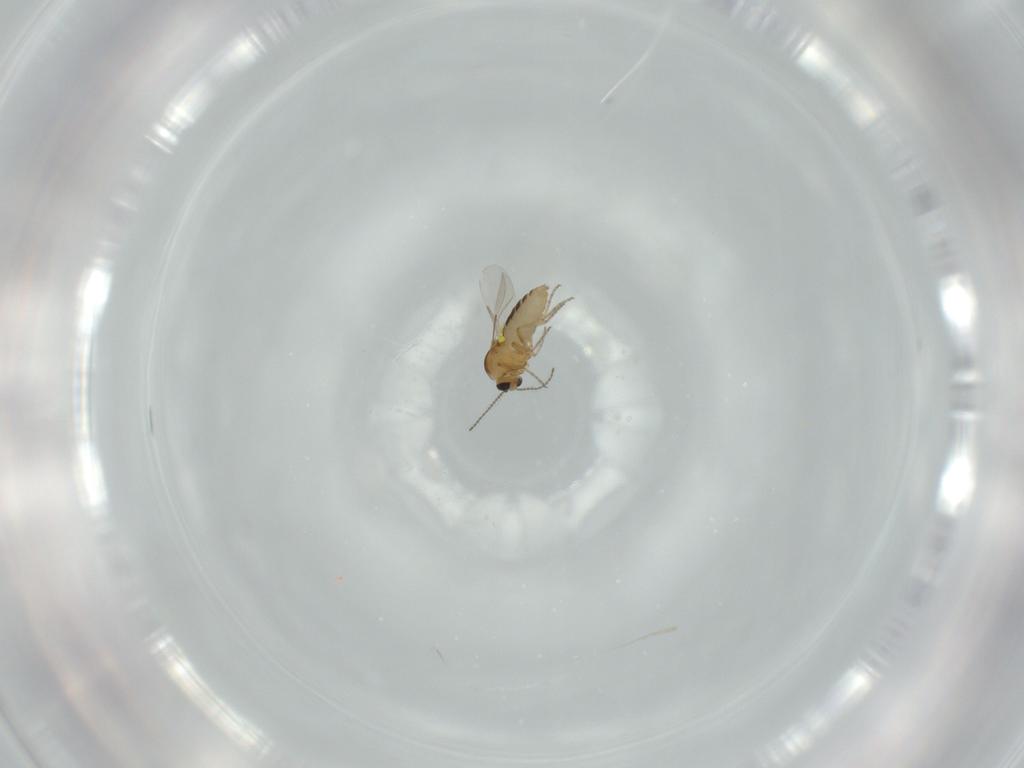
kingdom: Animalia
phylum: Arthropoda
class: Insecta
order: Diptera
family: Ceratopogonidae
